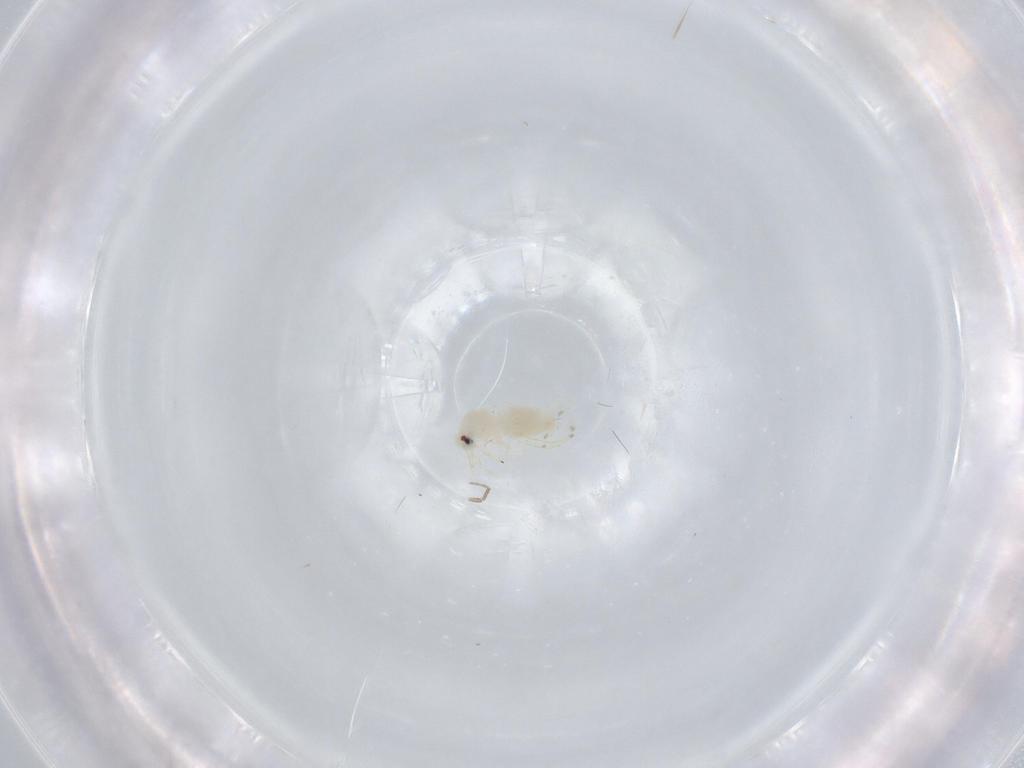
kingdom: Animalia
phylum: Arthropoda
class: Insecta
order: Hemiptera
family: Aleyrodidae
